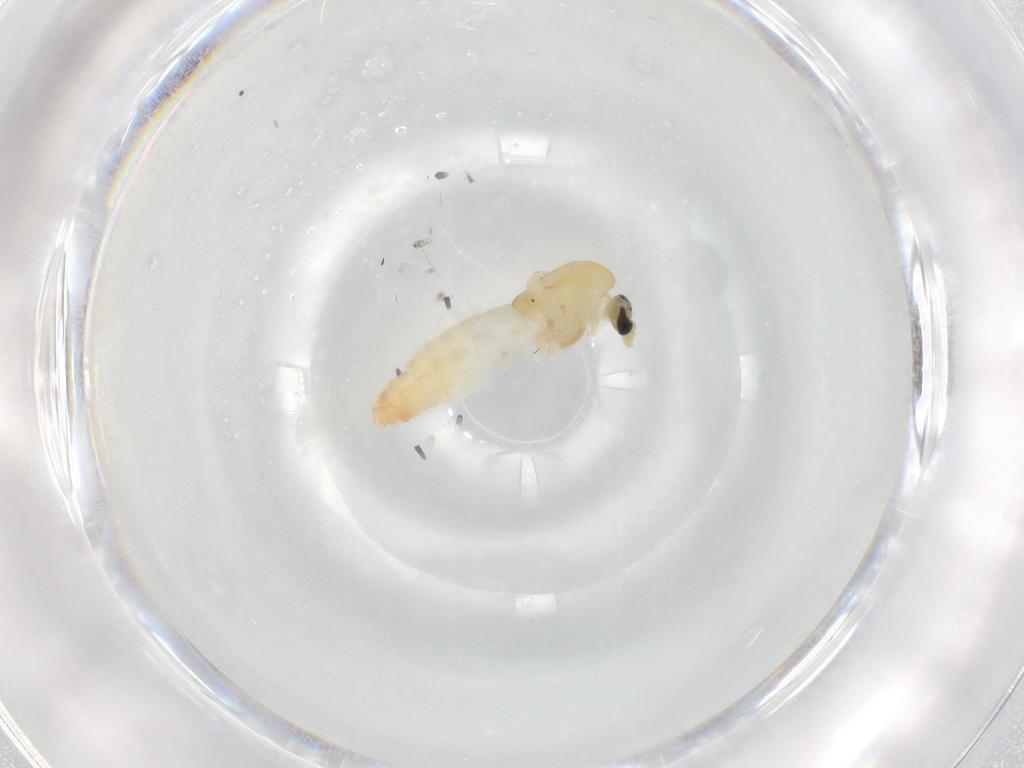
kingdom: Animalia
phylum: Arthropoda
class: Insecta
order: Diptera
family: Chironomidae
